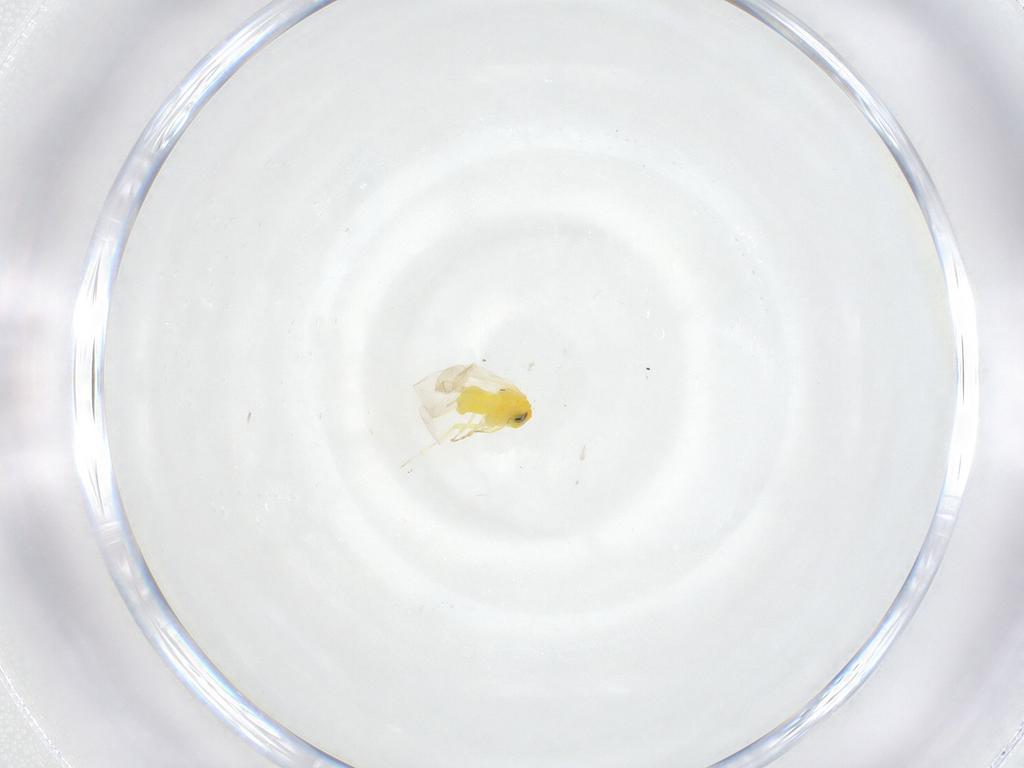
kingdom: Animalia
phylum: Arthropoda
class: Insecta
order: Hemiptera
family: Aleyrodidae
